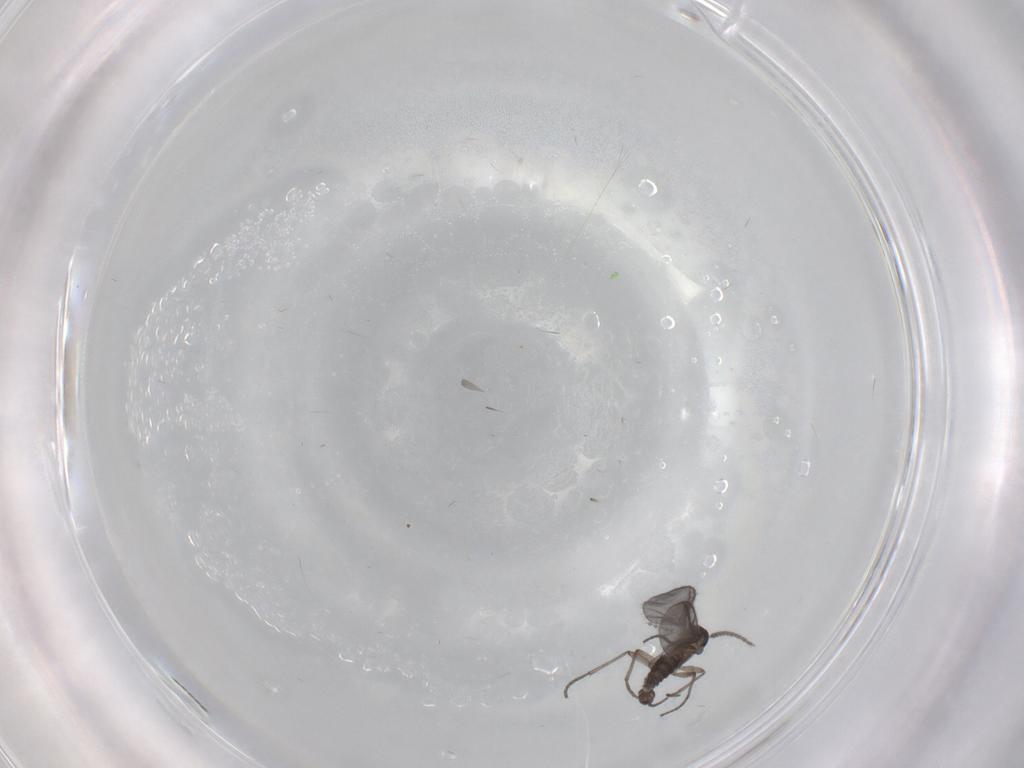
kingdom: Animalia
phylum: Arthropoda
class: Insecta
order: Diptera
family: Sciaridae
